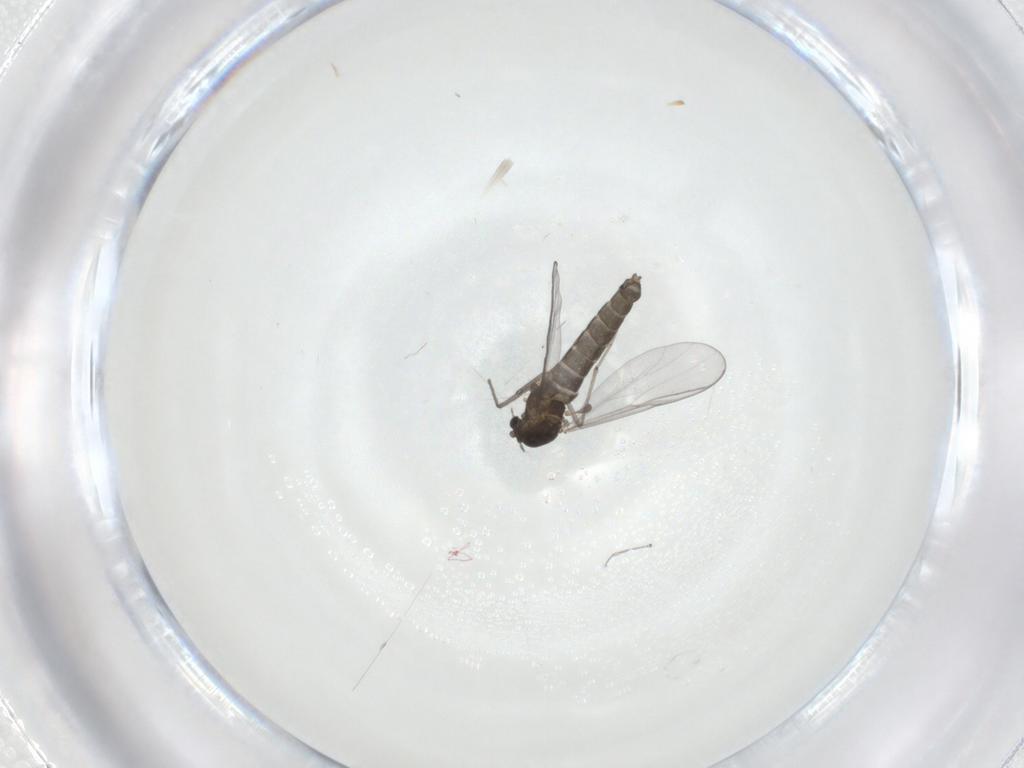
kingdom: Animalia
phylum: Arthropoda
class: Insecta
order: Diptera
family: Chironomidae
